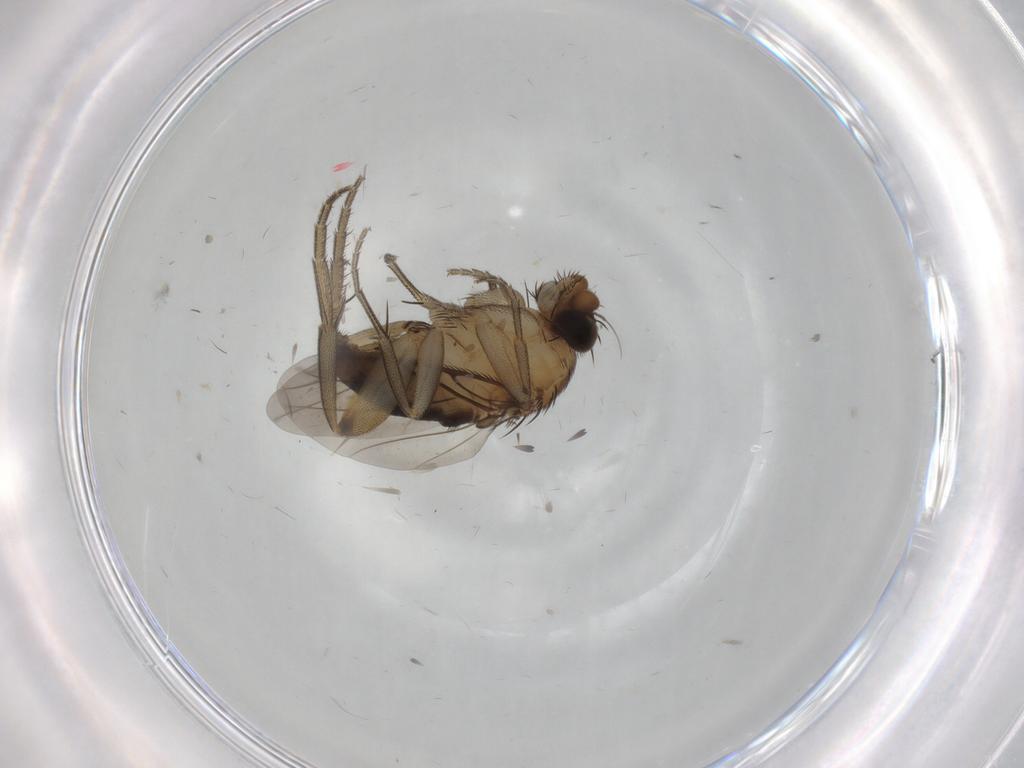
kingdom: Animalia
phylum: Arthropoda
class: Insecta
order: Diptera
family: Phoridae
